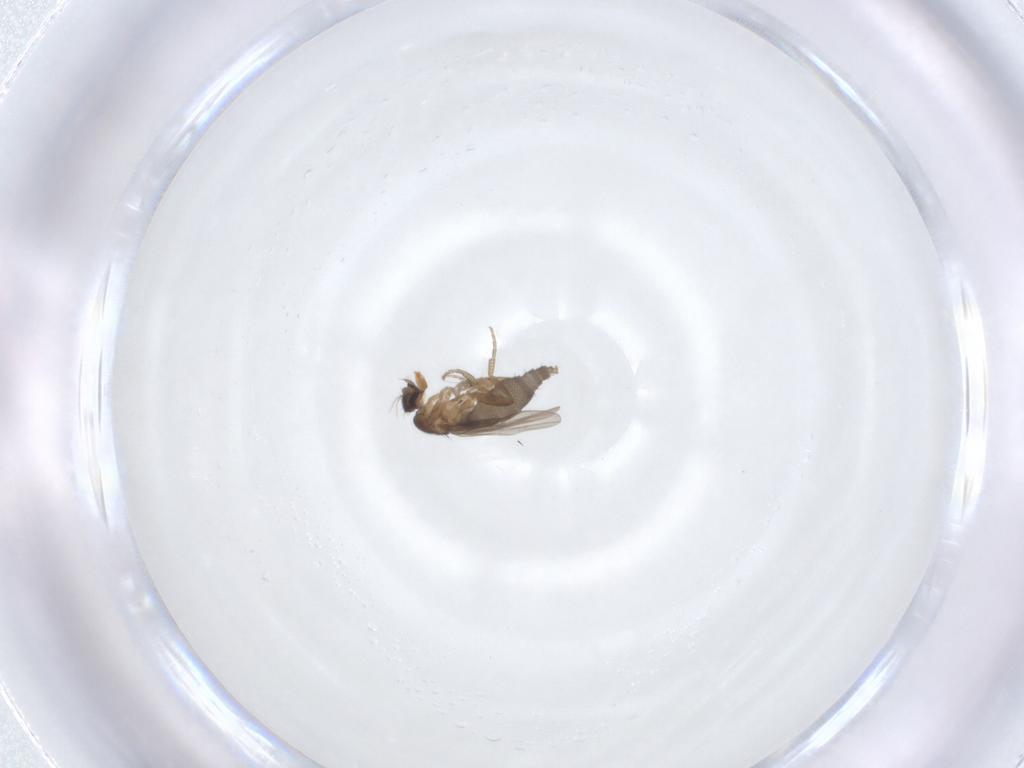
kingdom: Animalia
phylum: Arthropoda
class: Insecta
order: Diptera
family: Phoridae
